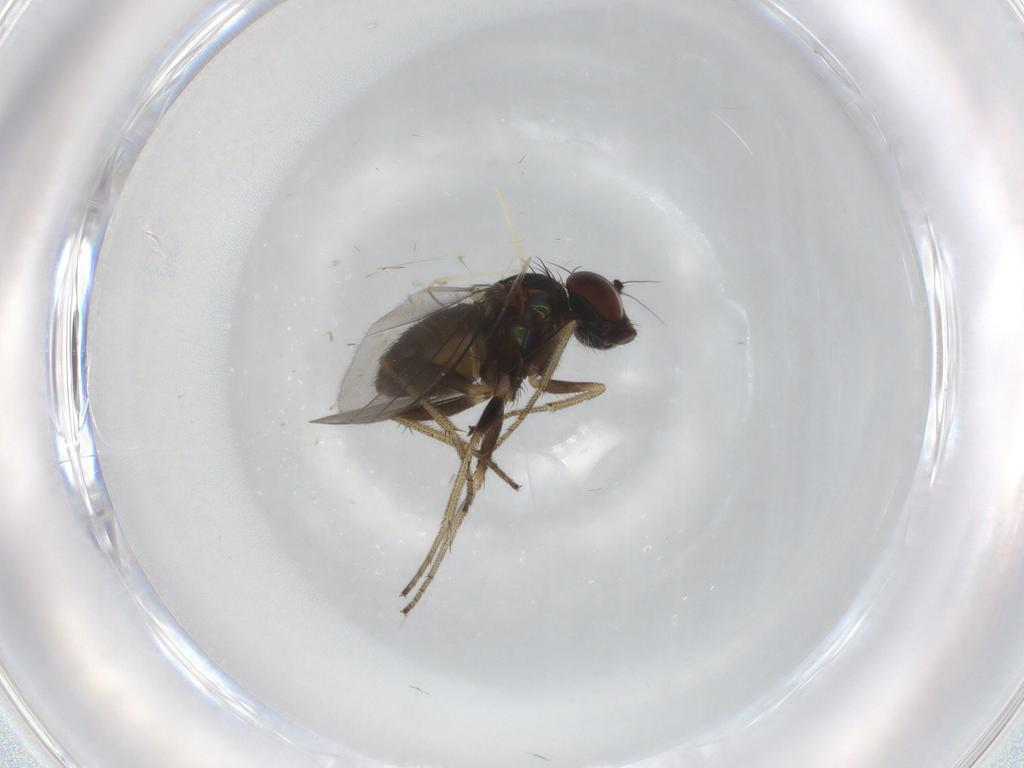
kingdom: Animalia
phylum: Arthropoda
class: Insecta
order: Diptera
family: Sciaridae
